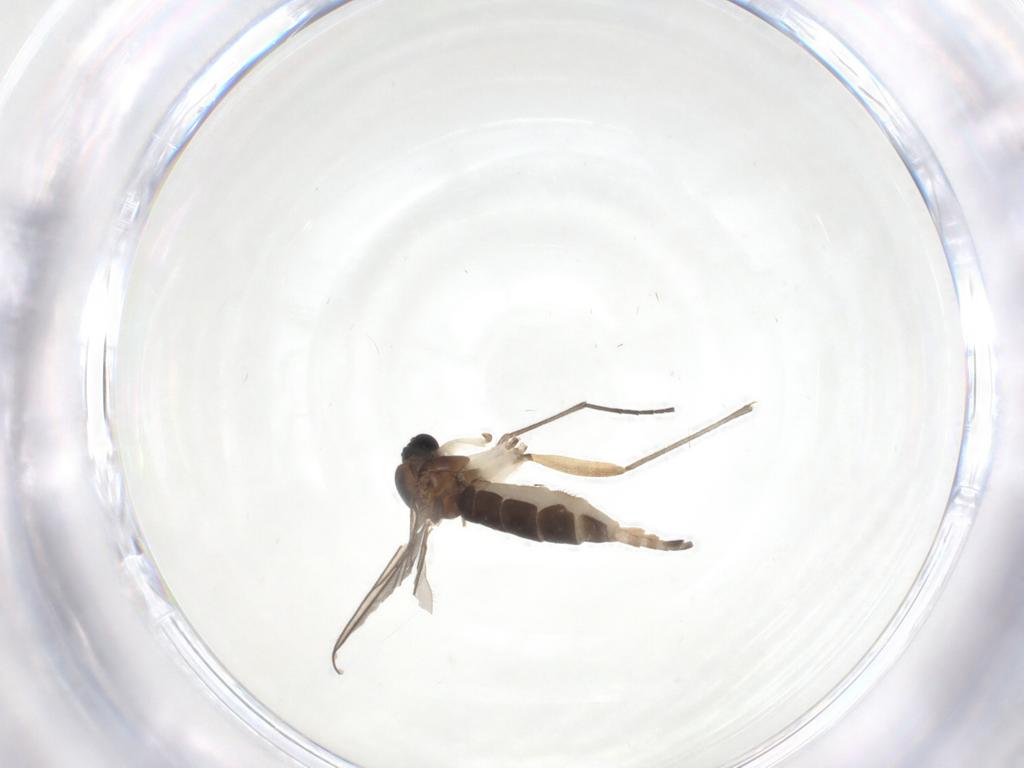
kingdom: Animalia
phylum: Arthropoda
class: Insecta
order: Diptera
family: Sciaridae
